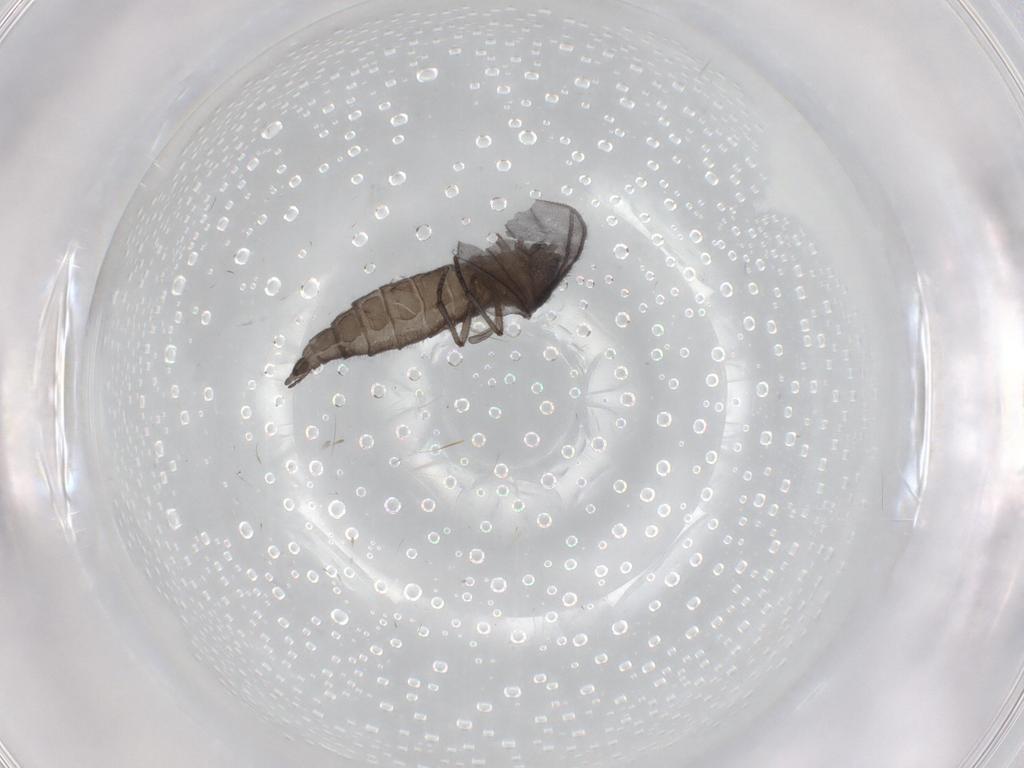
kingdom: Animalia
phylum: Arthropoda
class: Insecta
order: Diptera
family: Sciaridae
